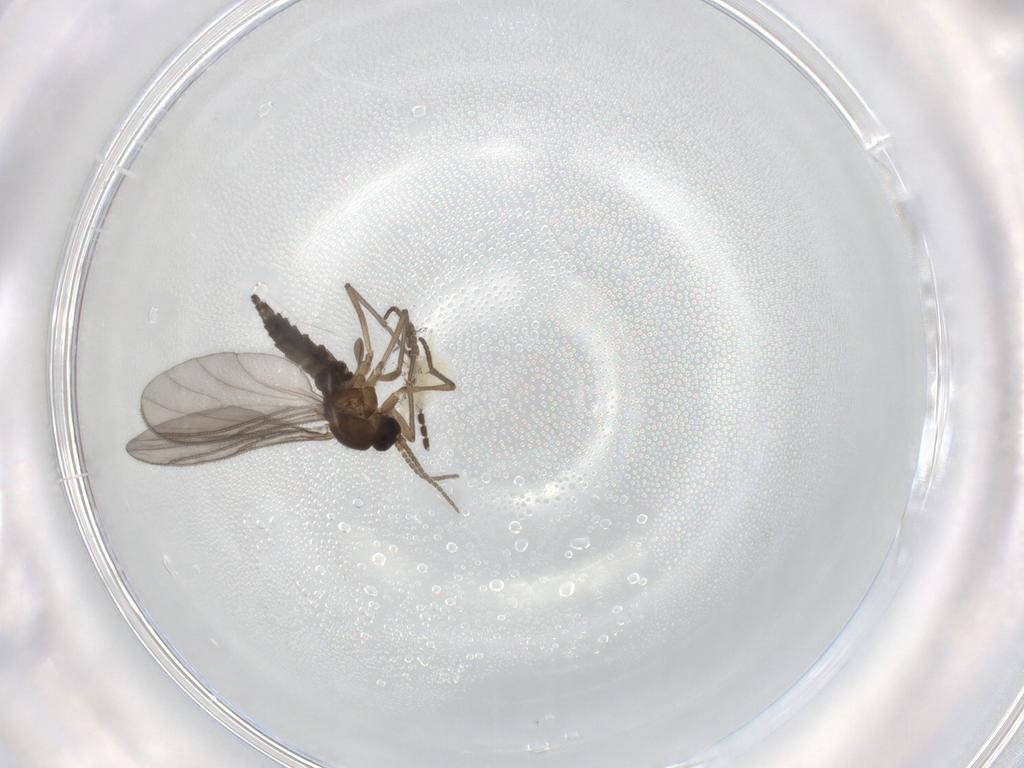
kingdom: Animalia
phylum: Arthropoda
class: Insecta
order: Diptera
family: Sciaridae
